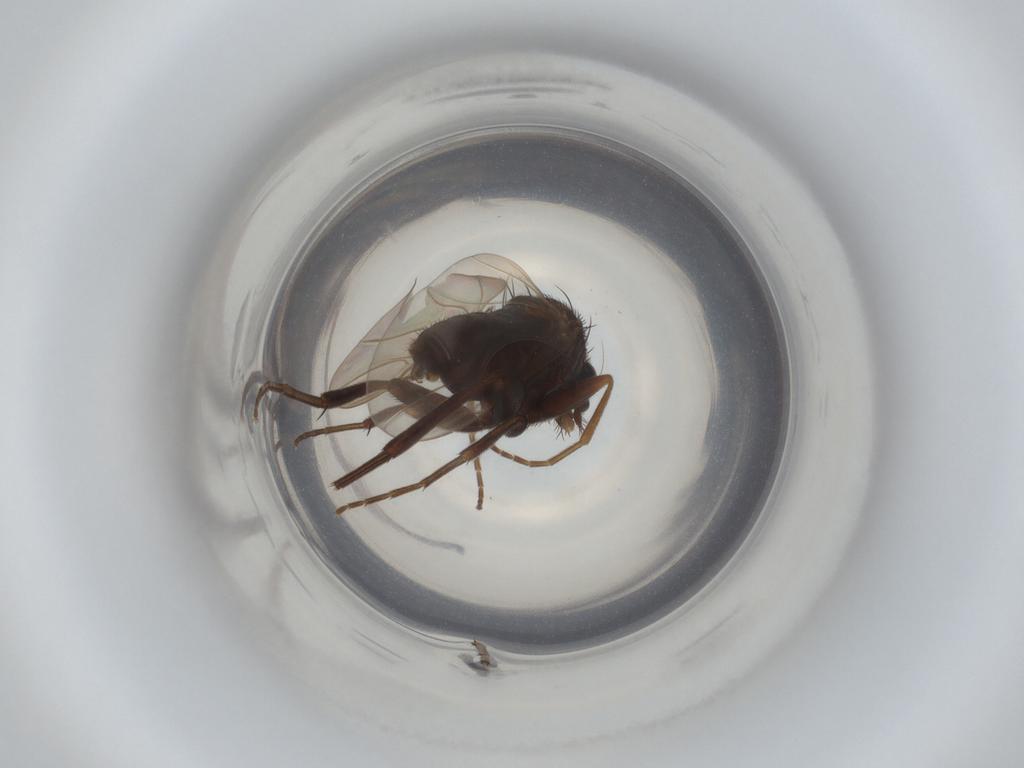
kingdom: Animalia
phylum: Arthropoda
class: Insecta
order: Diptera
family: Phoridae
